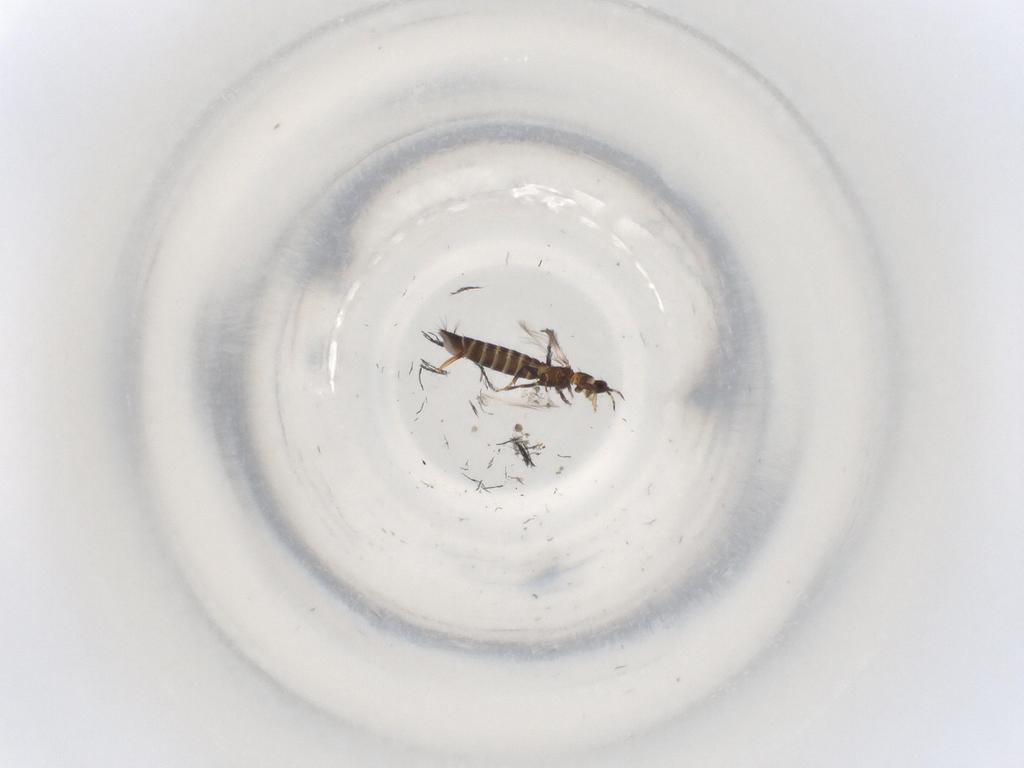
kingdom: Animalia
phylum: Arthropoda
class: Insecta
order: Thysanoptera
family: Thripidae
